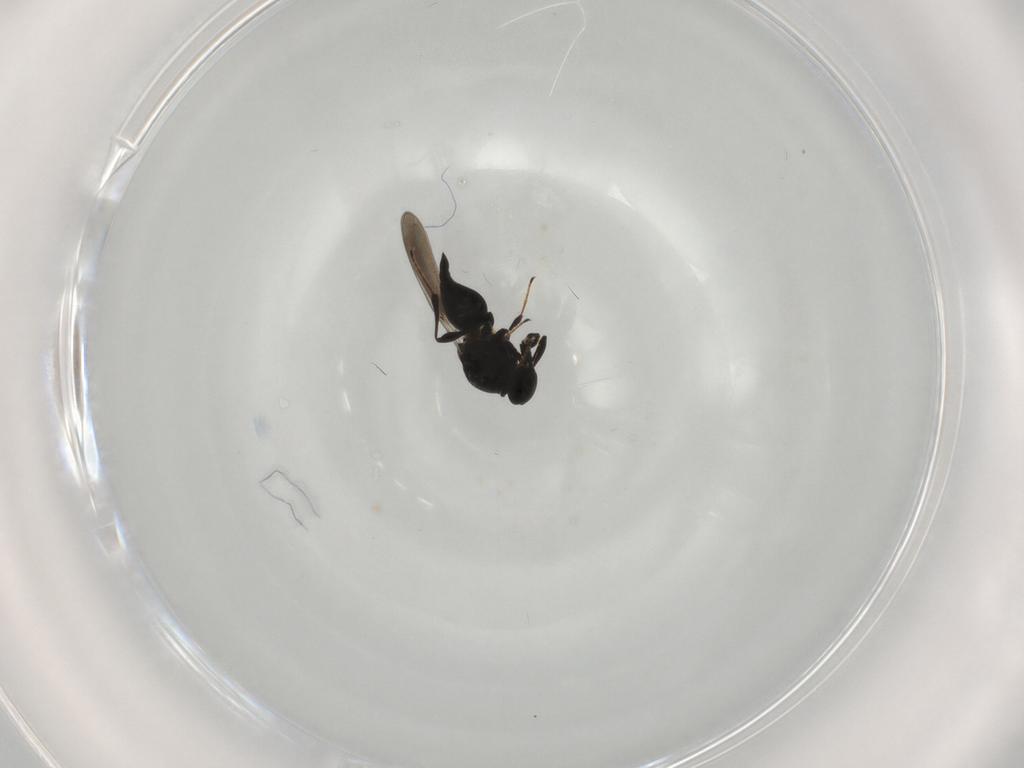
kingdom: Animalia
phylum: Arthropoda
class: Insecta
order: Hymenoptera
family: Platygastridae
